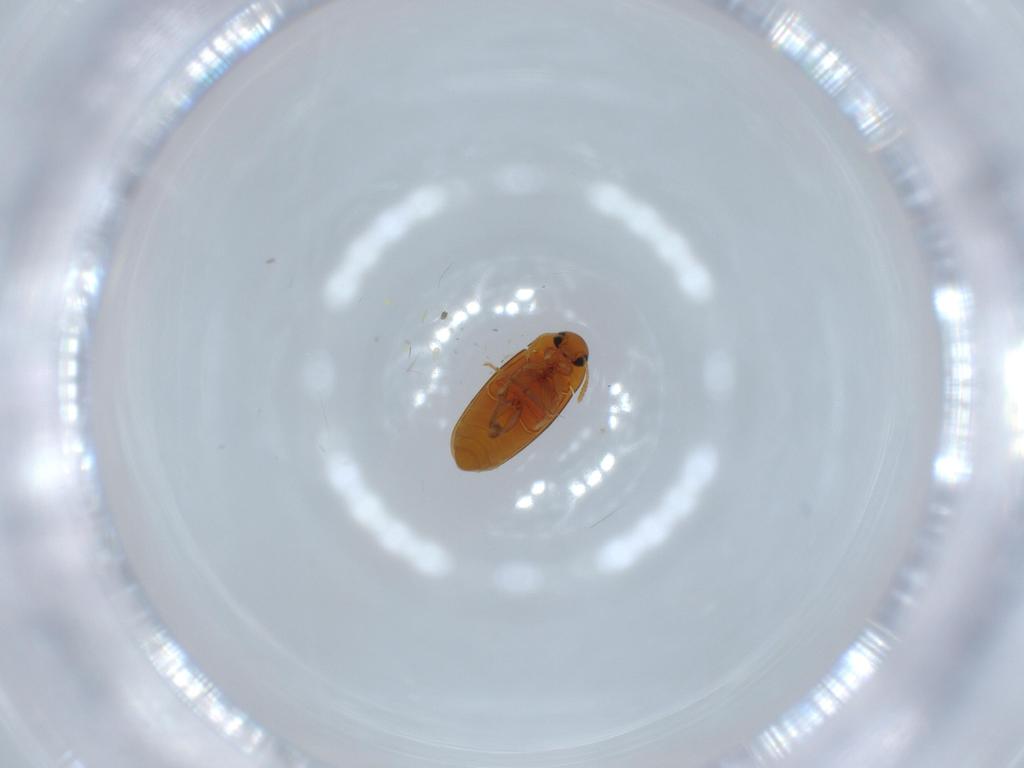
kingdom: Animalia
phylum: Arthropoda
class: Insecta
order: Coleoptera
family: Scraptiidae
